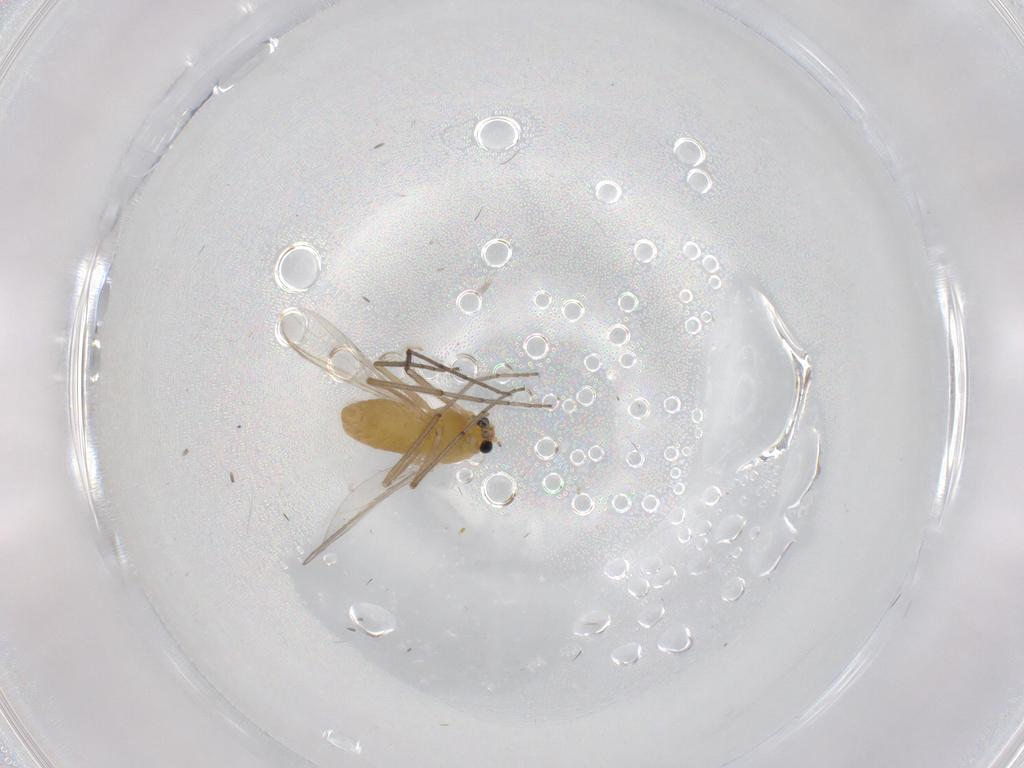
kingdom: Animalia
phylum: Arthropoda
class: Insecta
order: Diptera
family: Chironomidae
